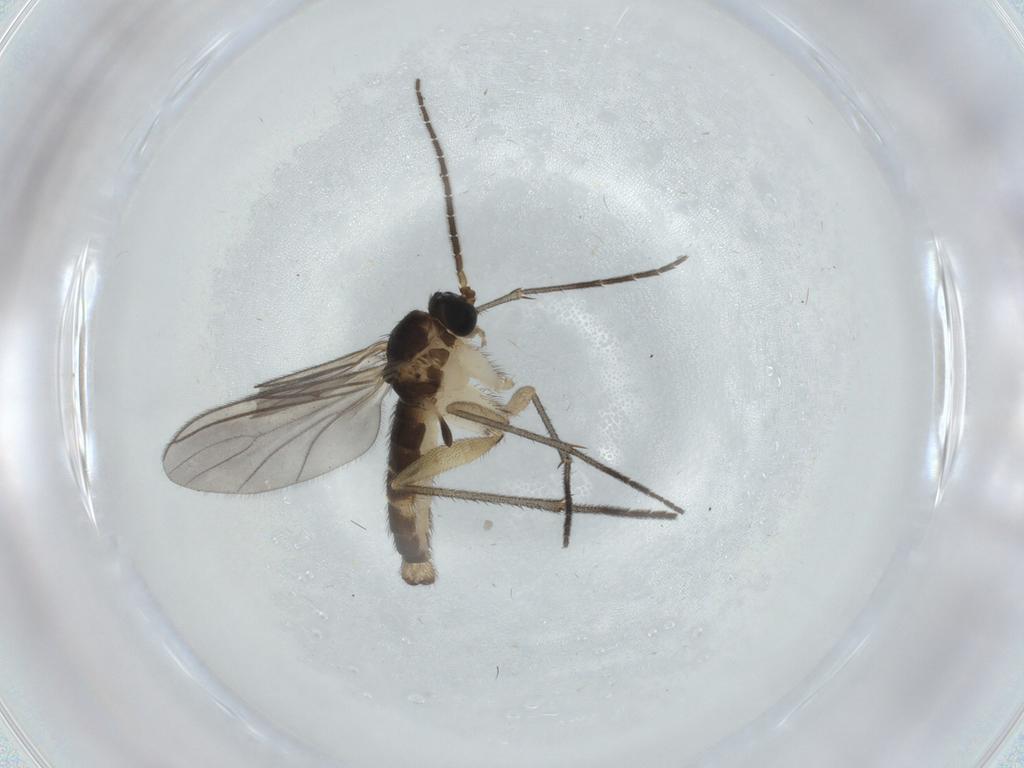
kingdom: Animalia
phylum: Arthropoda
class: Insecta
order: Diptera
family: Sciaridae
